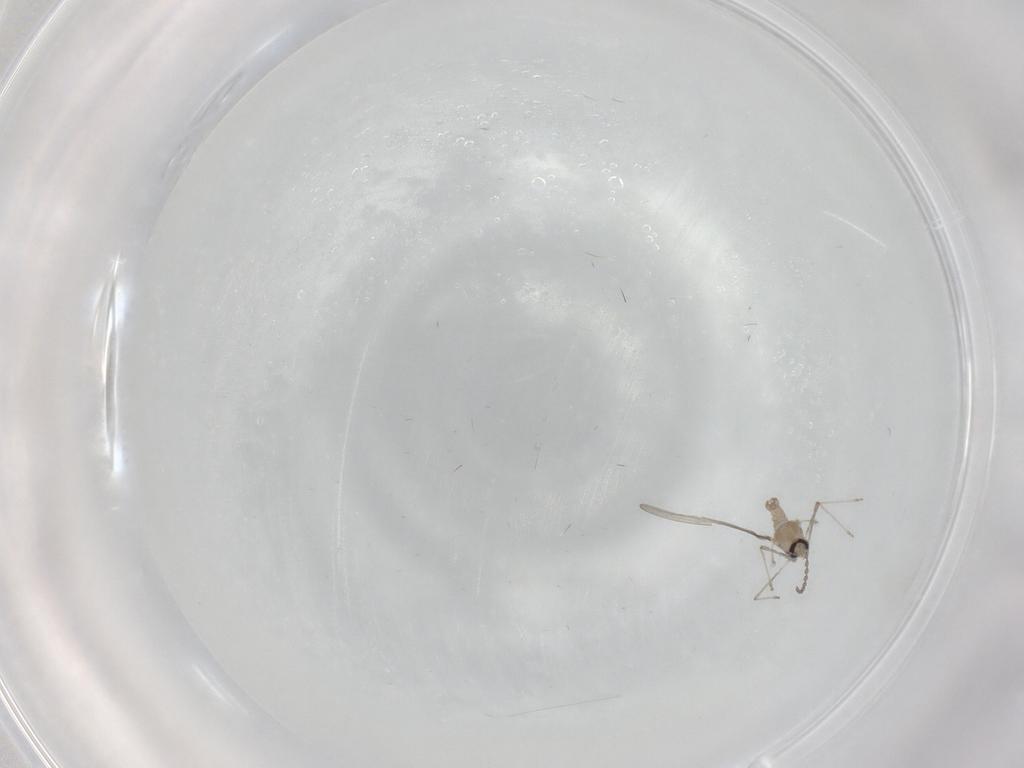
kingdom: Animalia
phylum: Arthropoda
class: Insecta
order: Diptera
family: Cecidomyiidae
